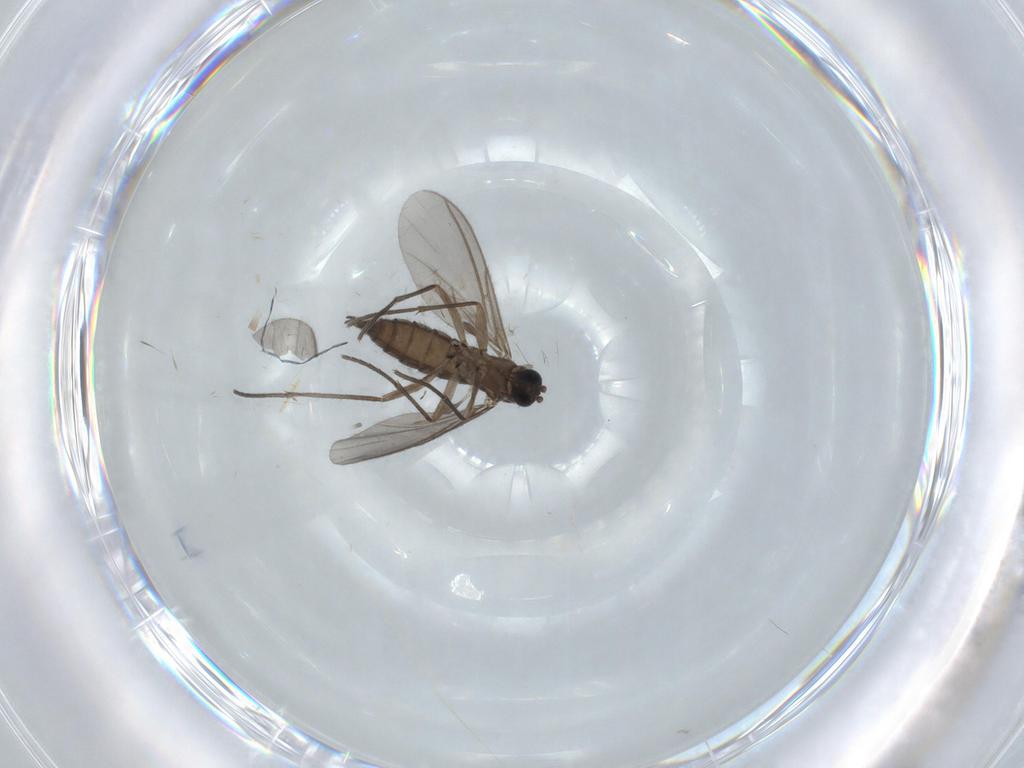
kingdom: Animalia
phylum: Arthropoda
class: Insecta
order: Diptera
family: Sciaridae
